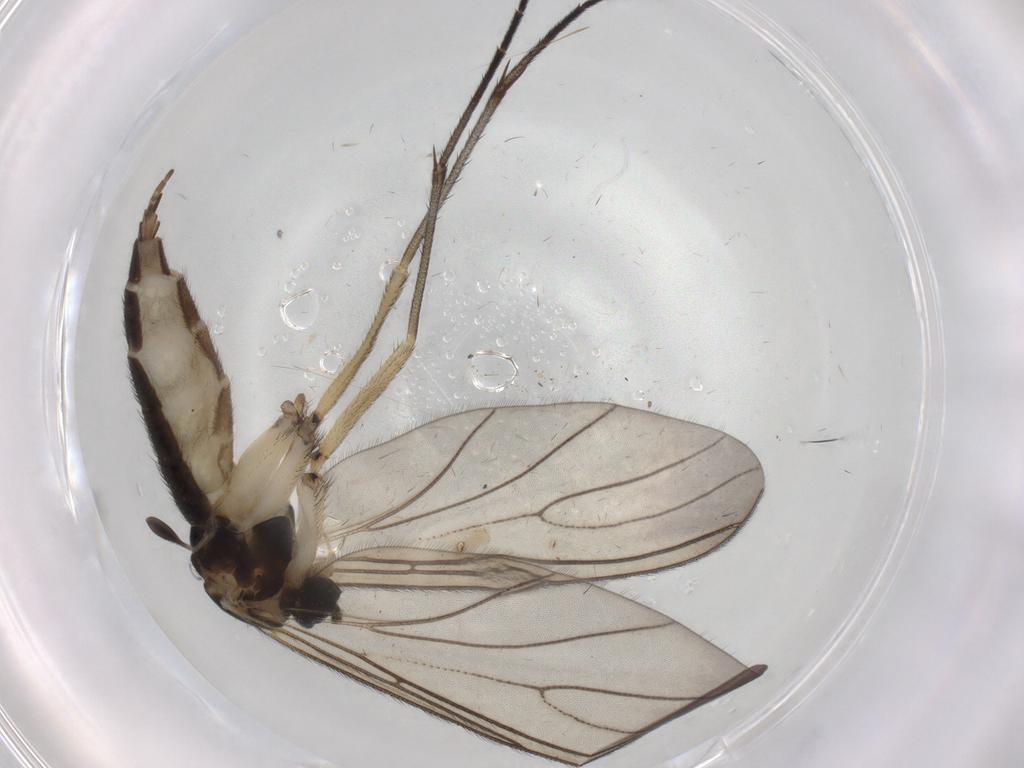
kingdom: Animalia
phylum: Arthropoda
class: Insecta
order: Diptera
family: Sciaridae
